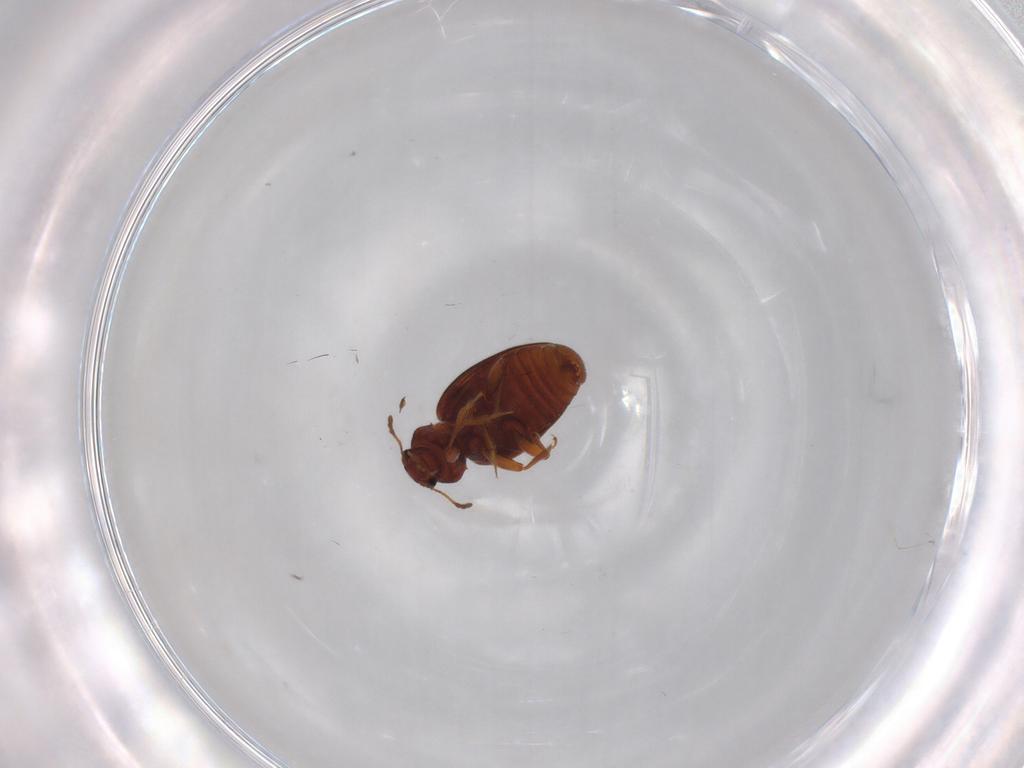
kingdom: Animalia
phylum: Arthropoda
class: Insecta
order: Coleoptera
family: Latridiidae
